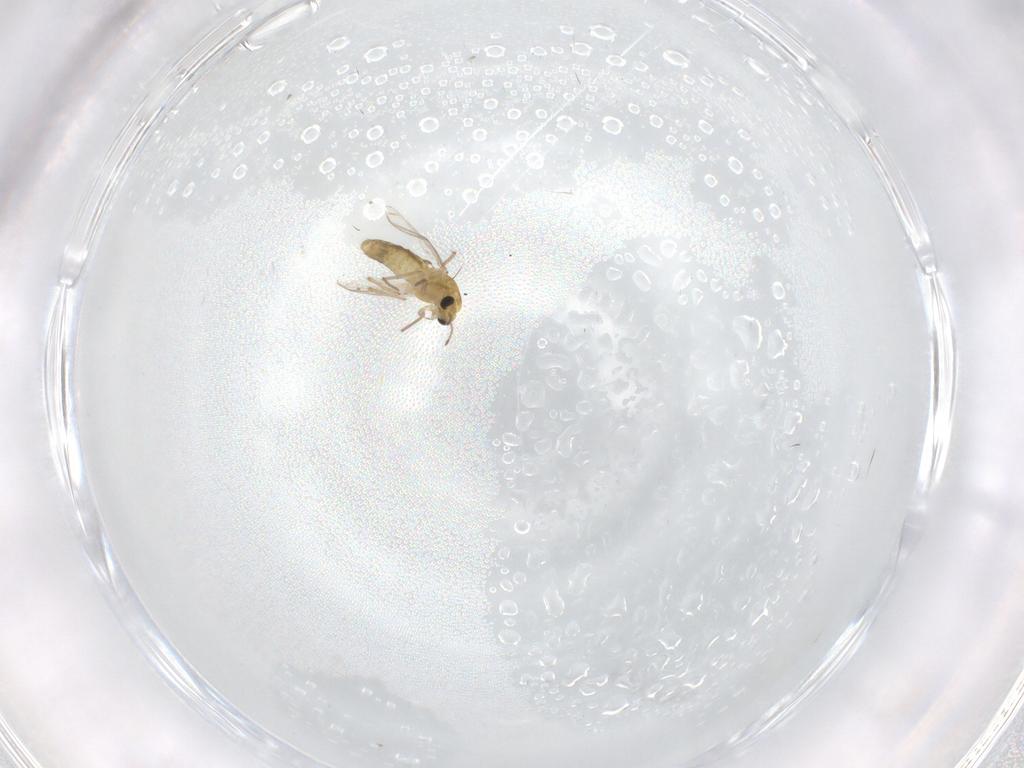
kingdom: Animalia
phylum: Arthropoda
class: Insecta
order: Diptera
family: Chironomidae
